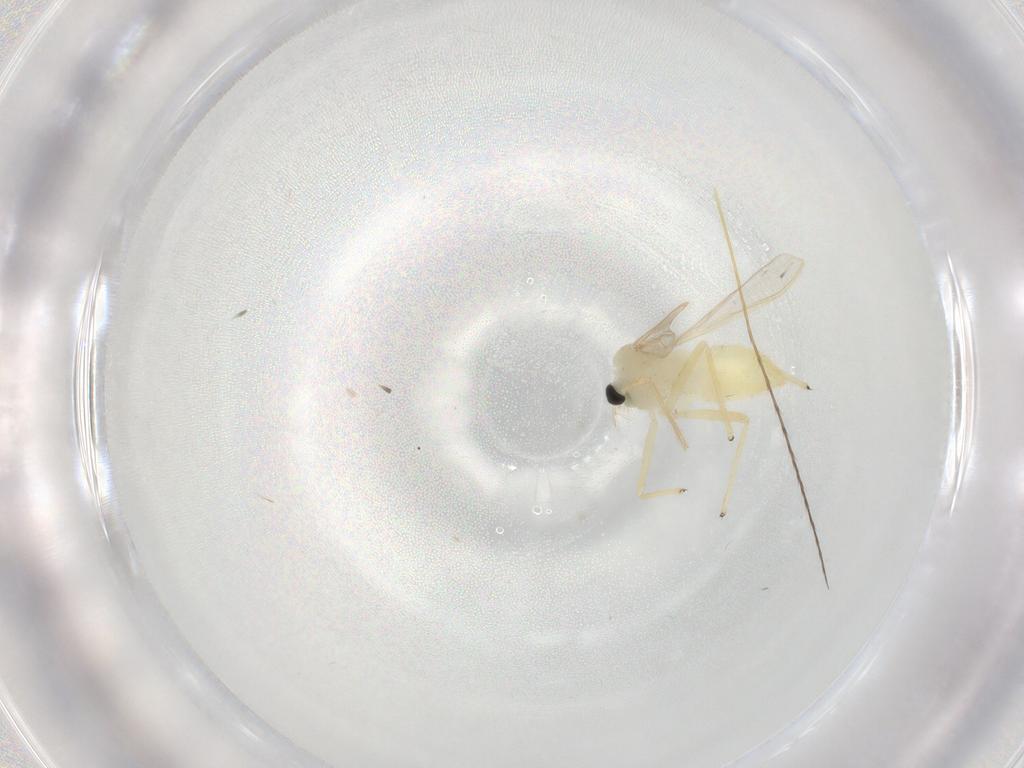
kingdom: Animalia
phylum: Arthropoda
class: Insecta
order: Diptera
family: Chironomidae
